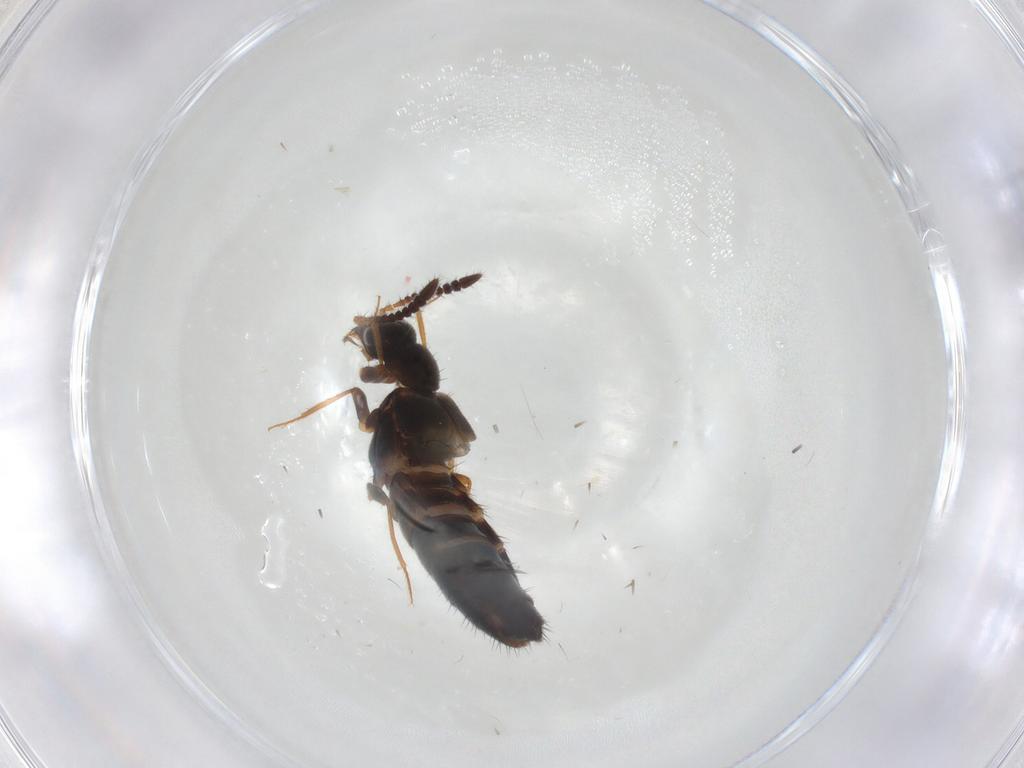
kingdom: Animalia
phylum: Arthropoda
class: Insecta
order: Coleoptera
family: Staphylinidae
